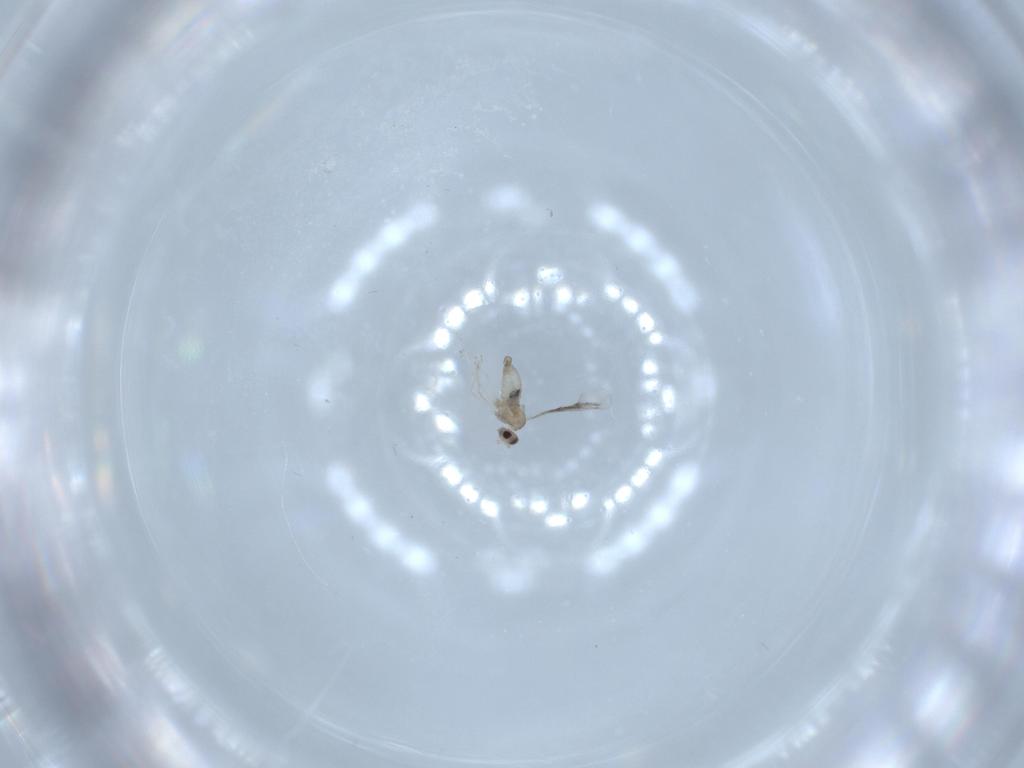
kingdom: Animalia
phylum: Arthropoda
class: Insecta
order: Diptera
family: Cecidomyiidae
